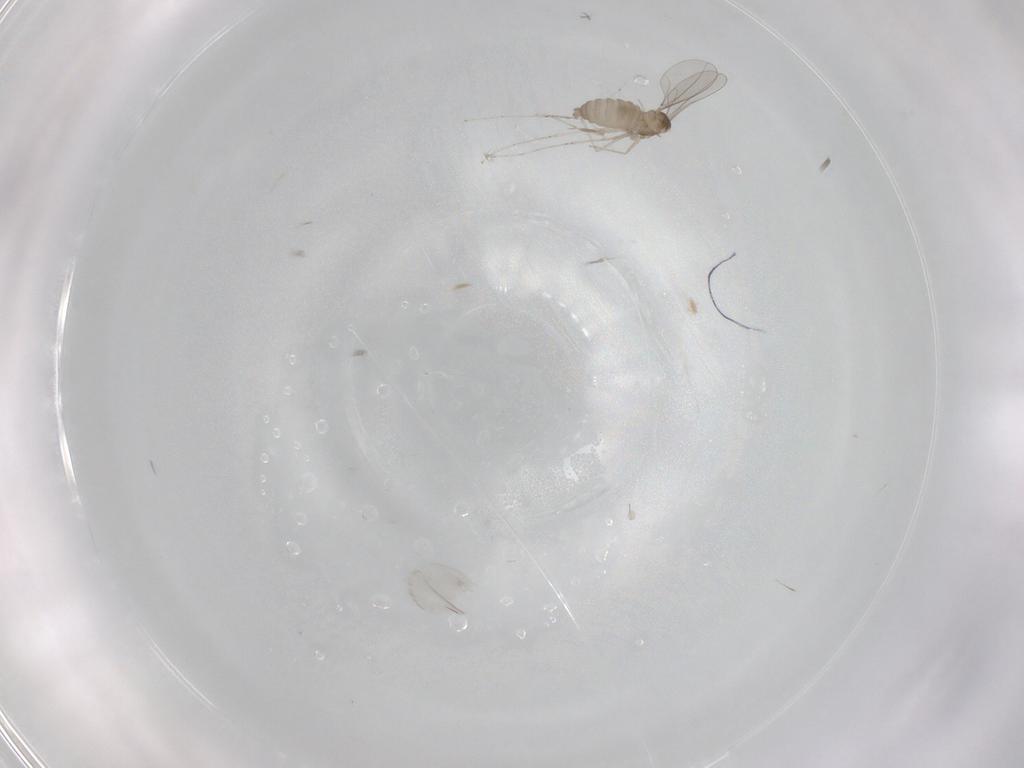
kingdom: Animalia
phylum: Arthropoda
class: Insecta
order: Diptera
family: Cecidomyiidae
